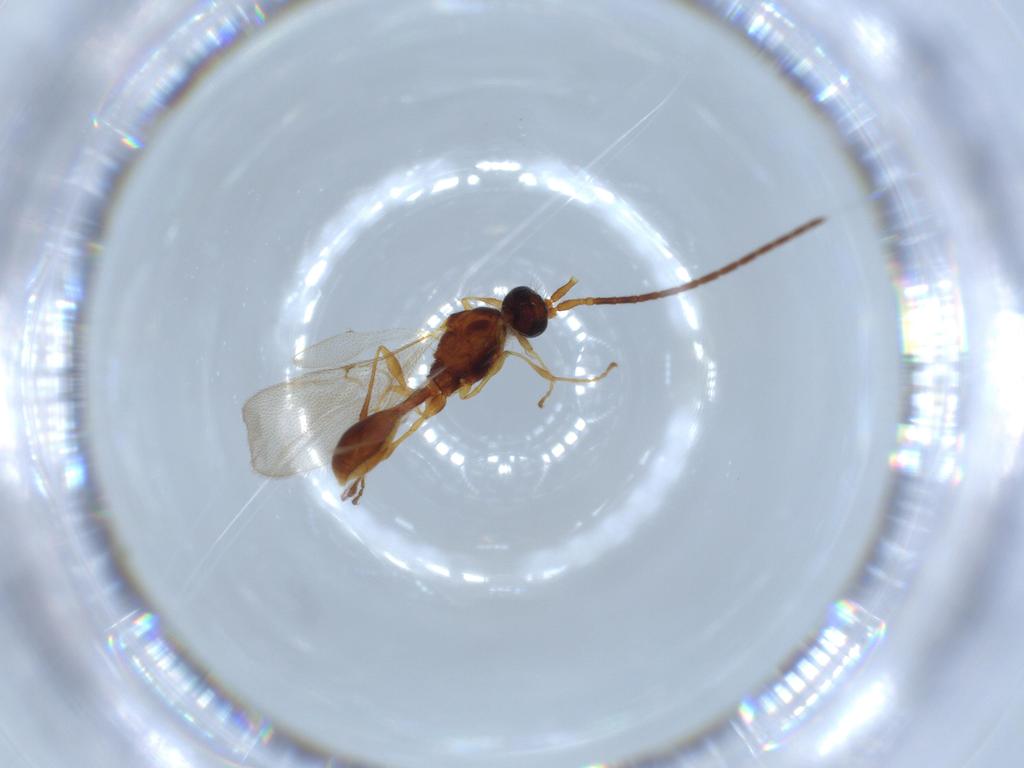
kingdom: Animalia
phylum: Arthropoda
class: Insecta
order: Hymenoptera
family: Diapriidae
